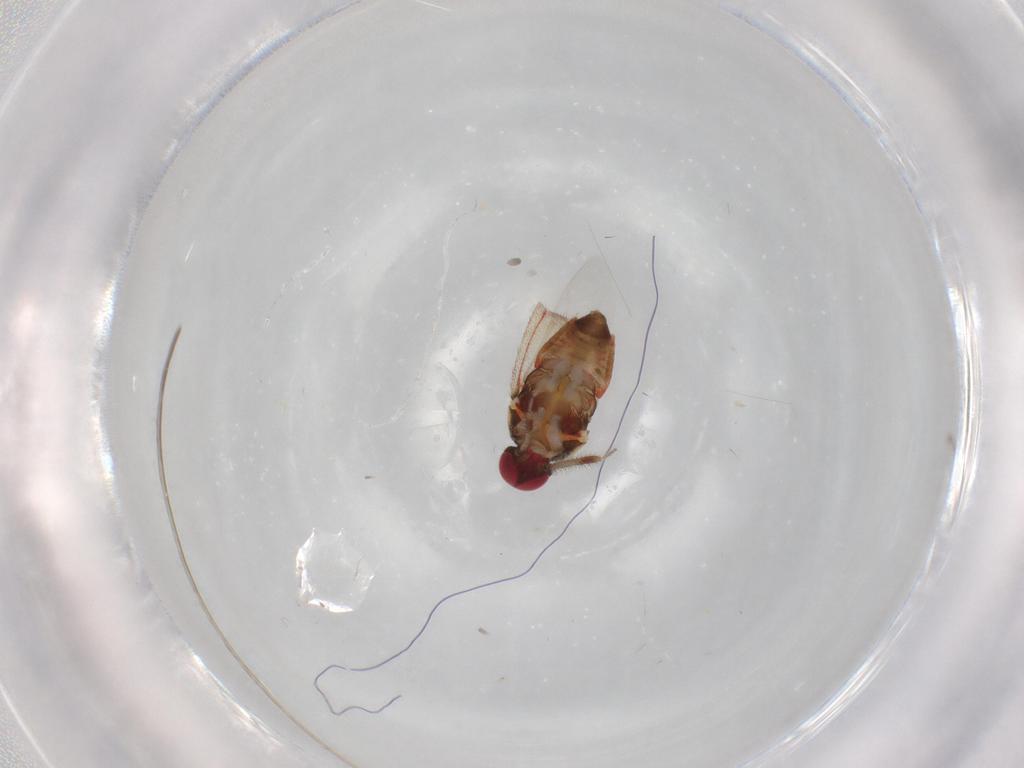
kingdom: Animalia
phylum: Arthropoda
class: Insecta
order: Hemiptera
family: Miridae
